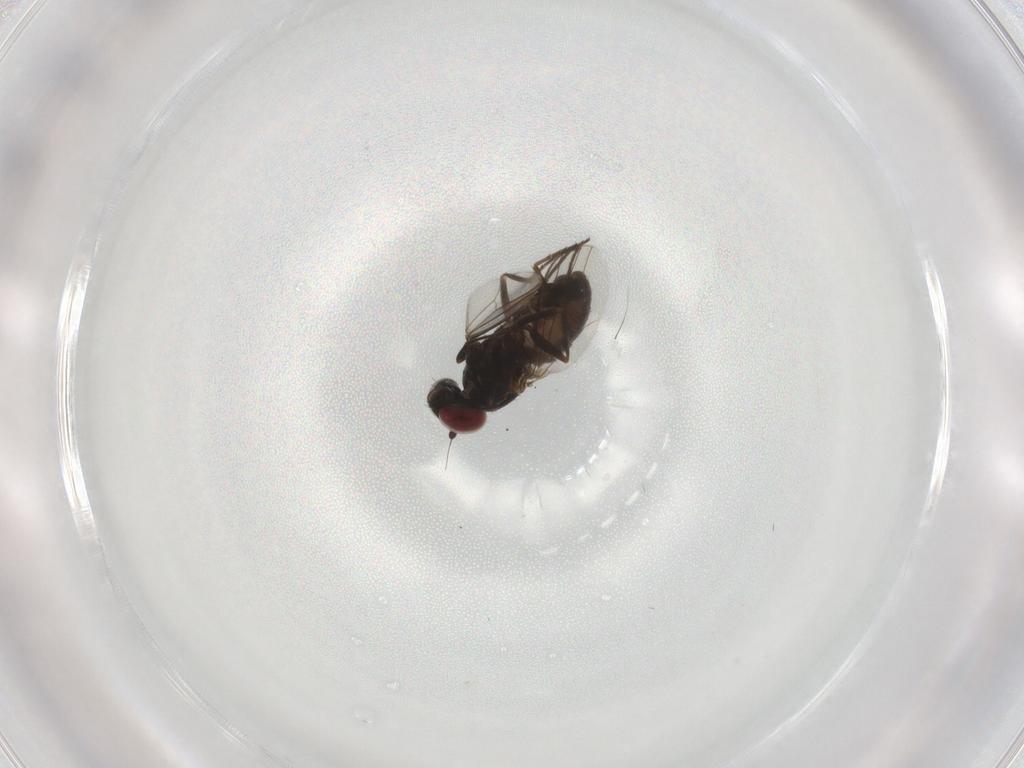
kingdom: Animalia
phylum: Arthropoda
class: Insecta
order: Diptera
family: Dolichopodidae
